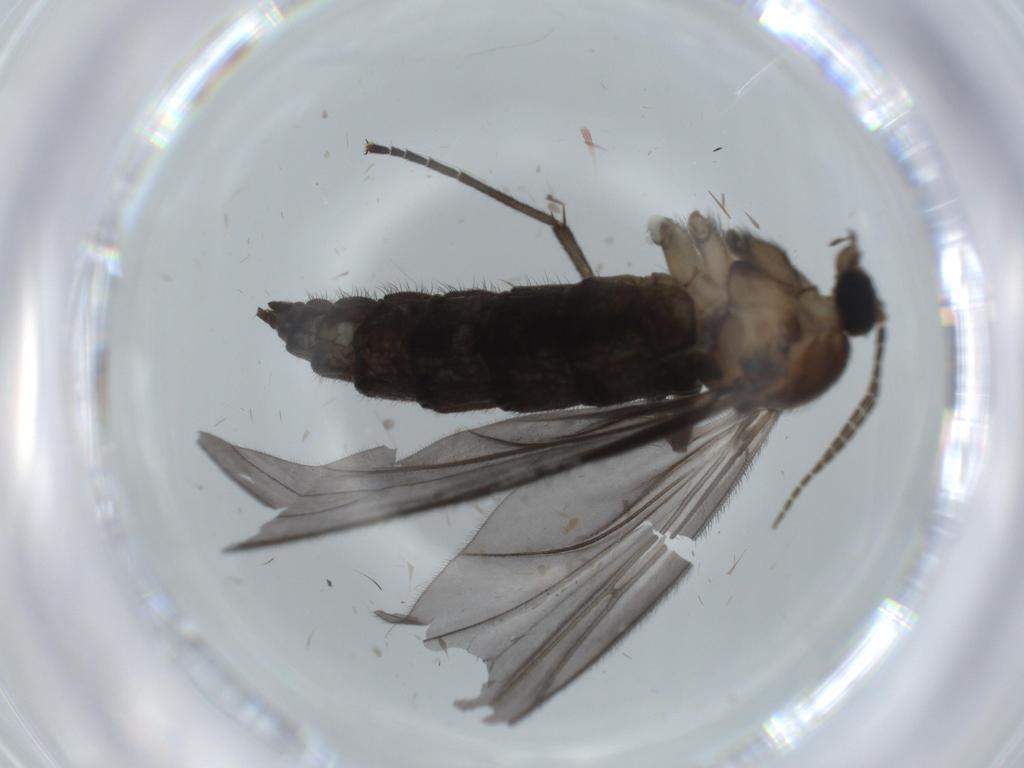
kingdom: Animalia
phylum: Arthropoda
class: Insecta
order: Diptera
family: Sciaridae
